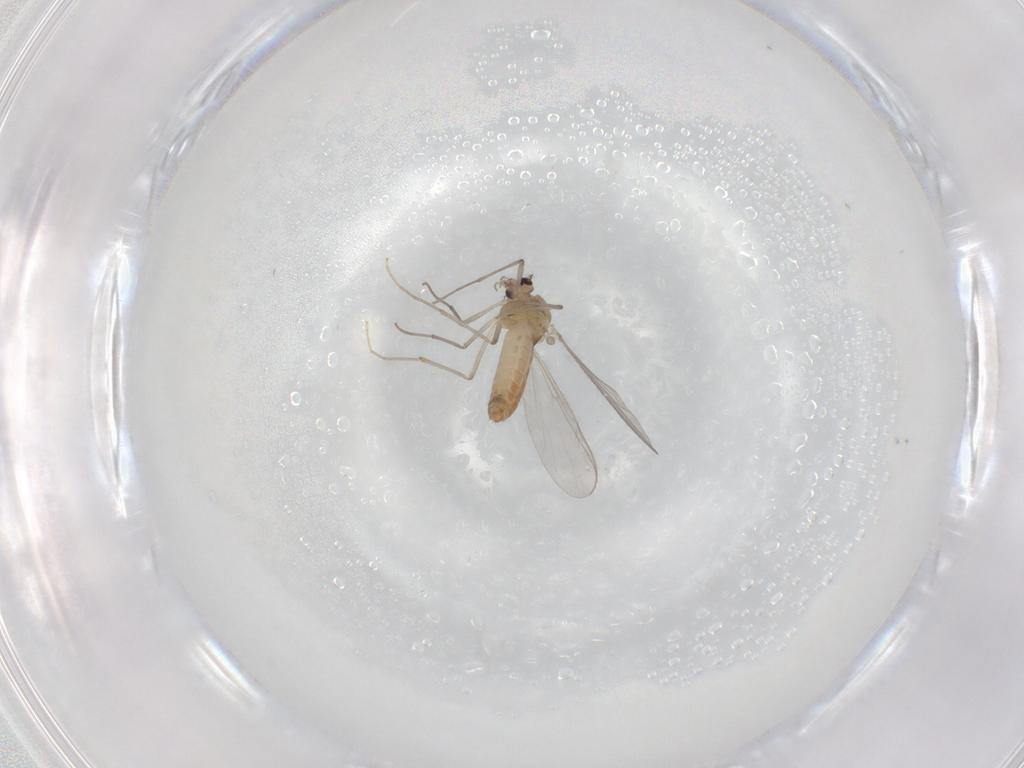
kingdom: Animalia
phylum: Arthropoda
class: Insecta
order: Diptera
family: Chironomidae
